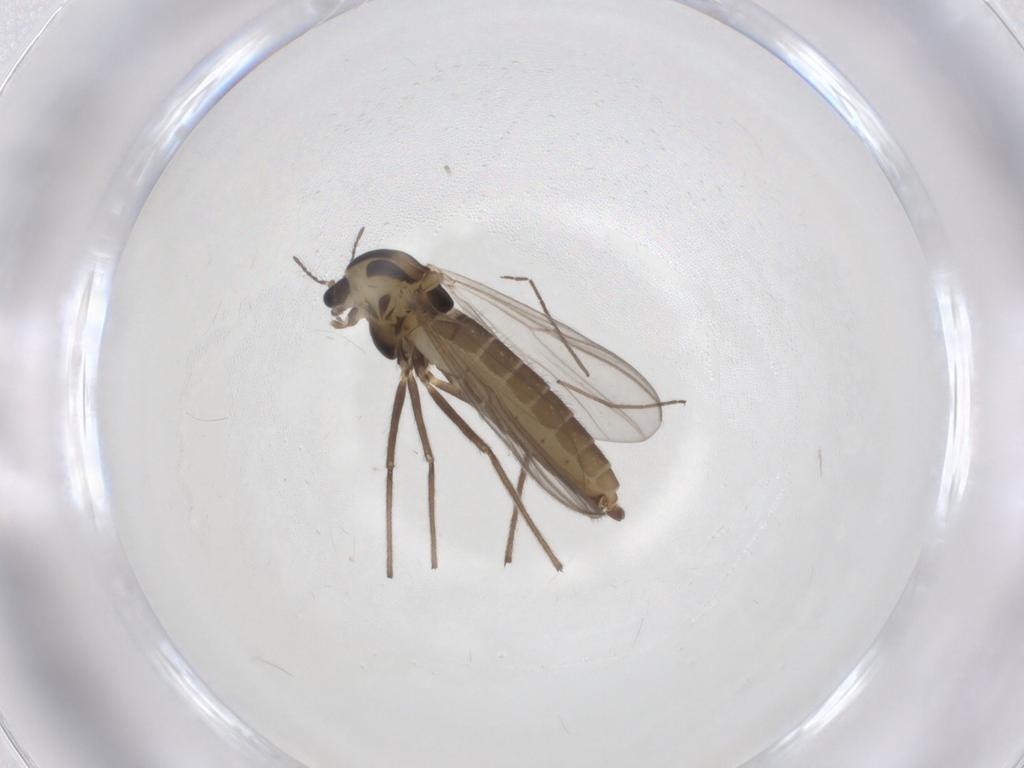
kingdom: Animalia
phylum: Arthropoda
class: Insecta
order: Diptera
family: Chironomidae
